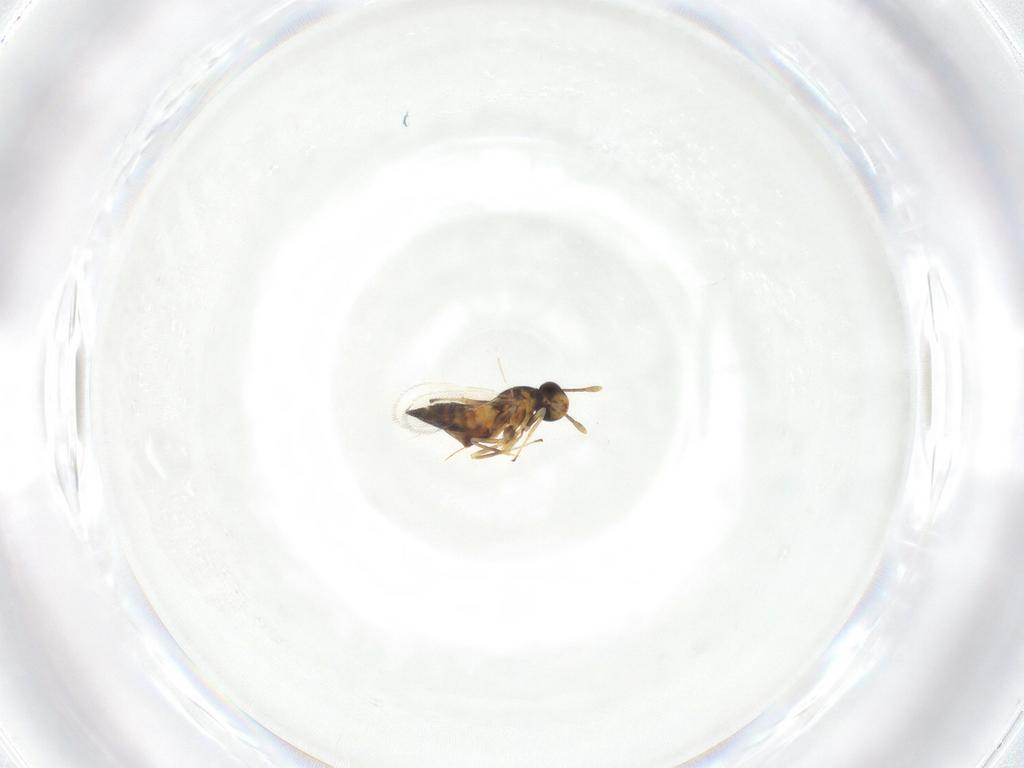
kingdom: Animalia
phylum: Arthropoda
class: Insecta
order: Hymenoptera
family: Eulophidae
